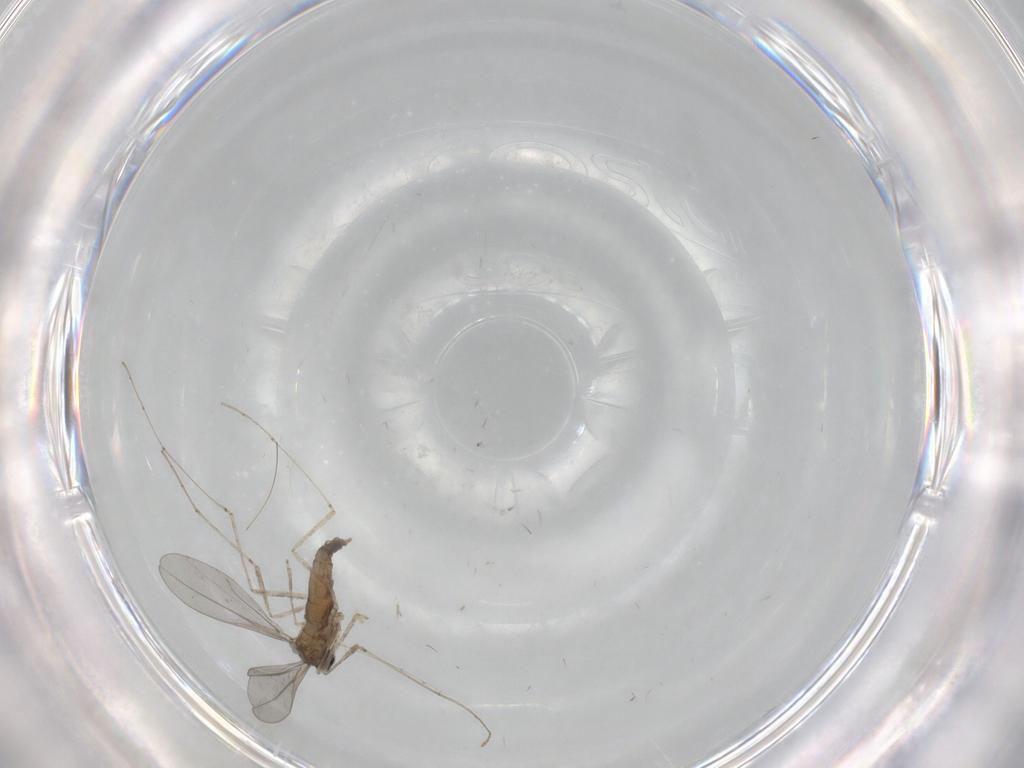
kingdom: Animalia
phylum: Arthropoda
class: Insecta
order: Diptera
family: Cecidomyiidae
